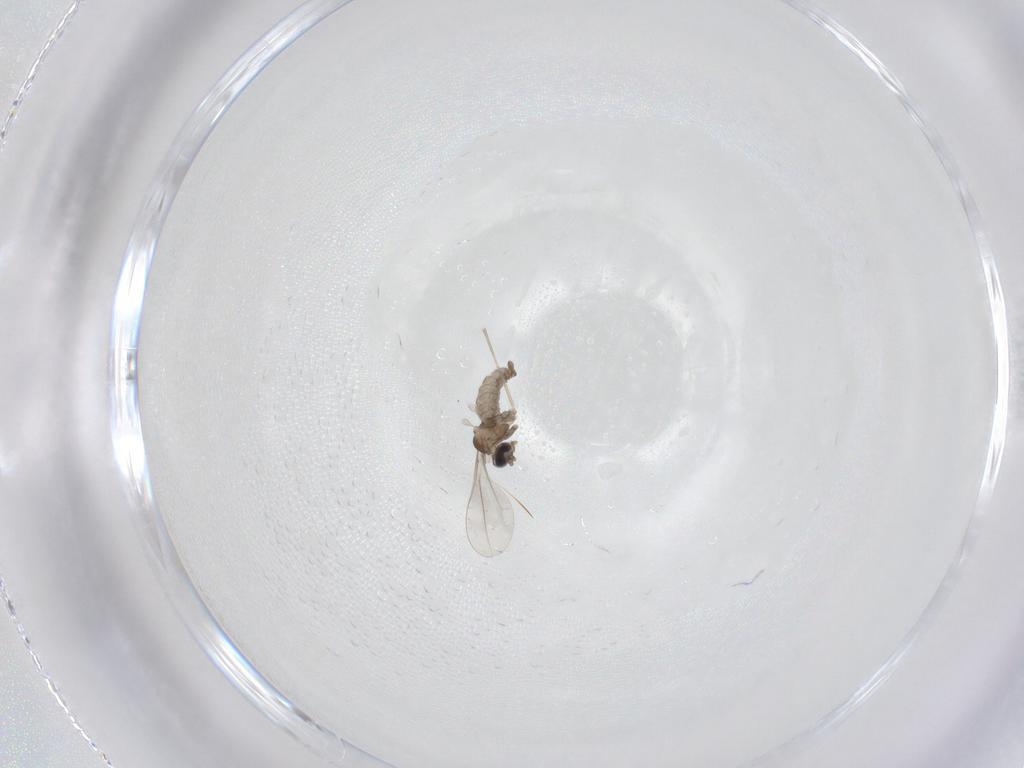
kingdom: Animalia
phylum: Arthropoda
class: Insecta
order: Diptera
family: Cecidomyiidae
